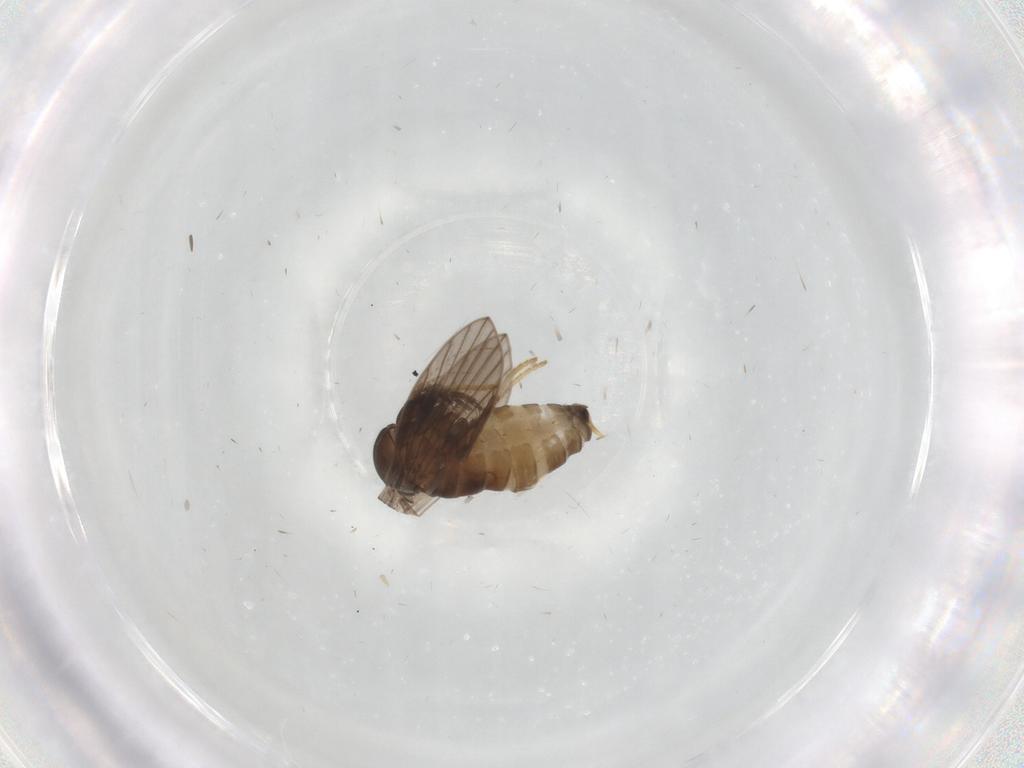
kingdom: Animalia
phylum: Arthropoda
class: Insecta
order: Diptera
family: Psychodidae
